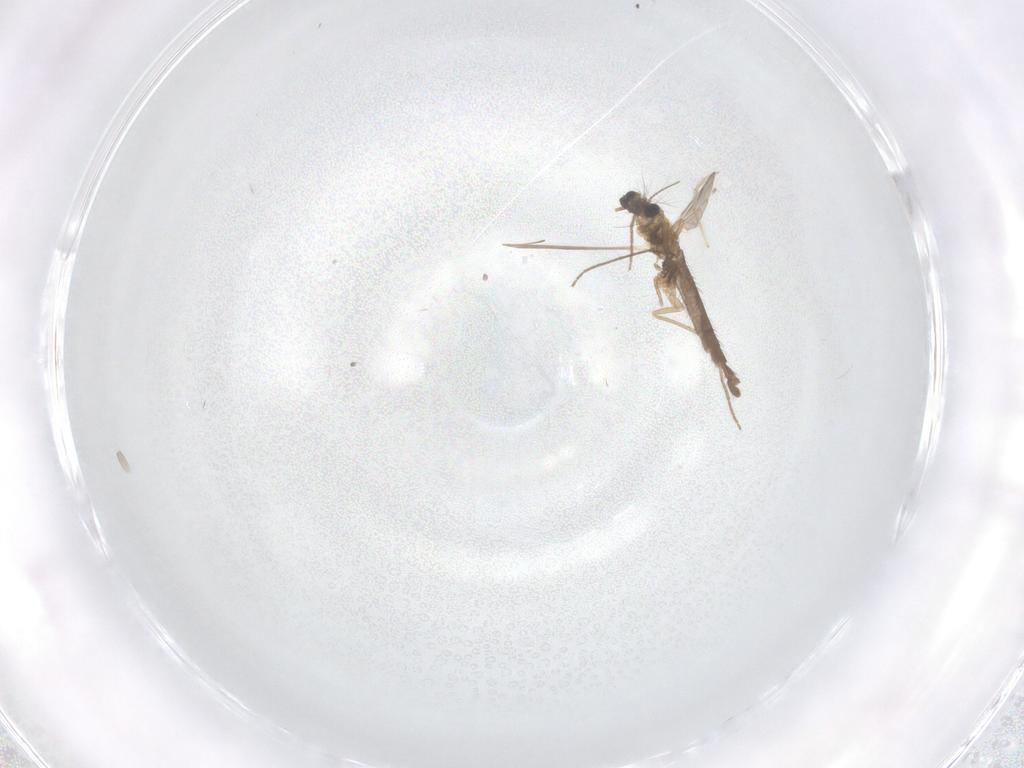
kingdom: Animalia
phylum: Arthropoda
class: Insecta
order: Diptera
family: Chironomidae
